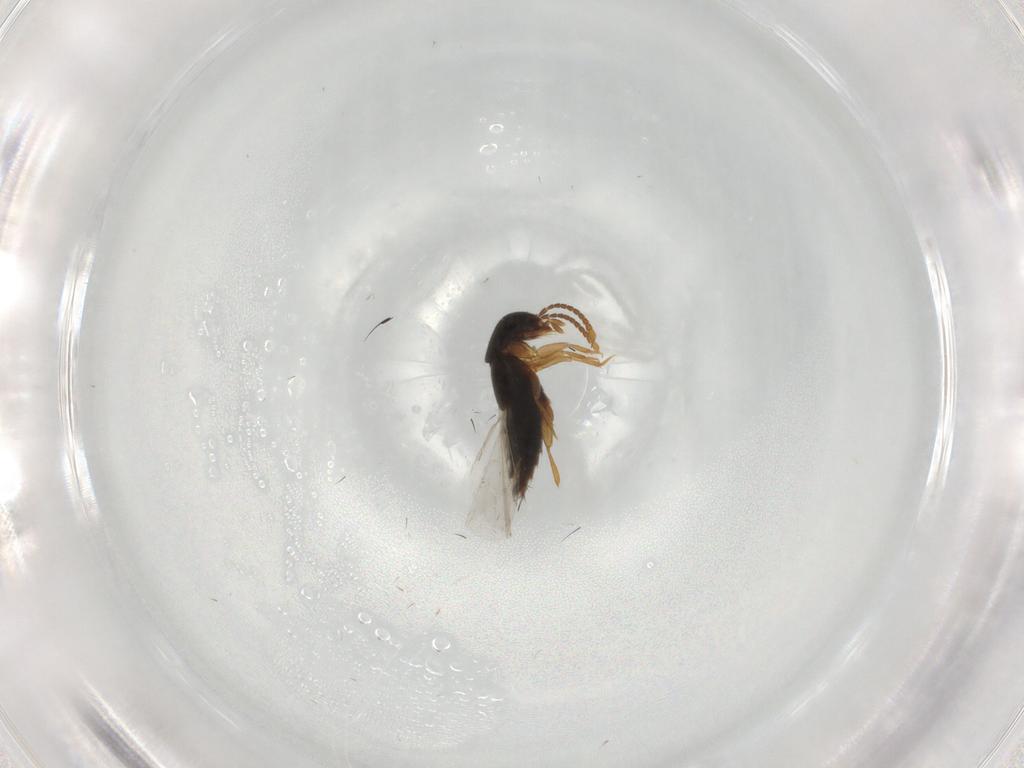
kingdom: Animalia
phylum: Arthropoda
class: Insecta
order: Coleoptera
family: Staphylinidae
